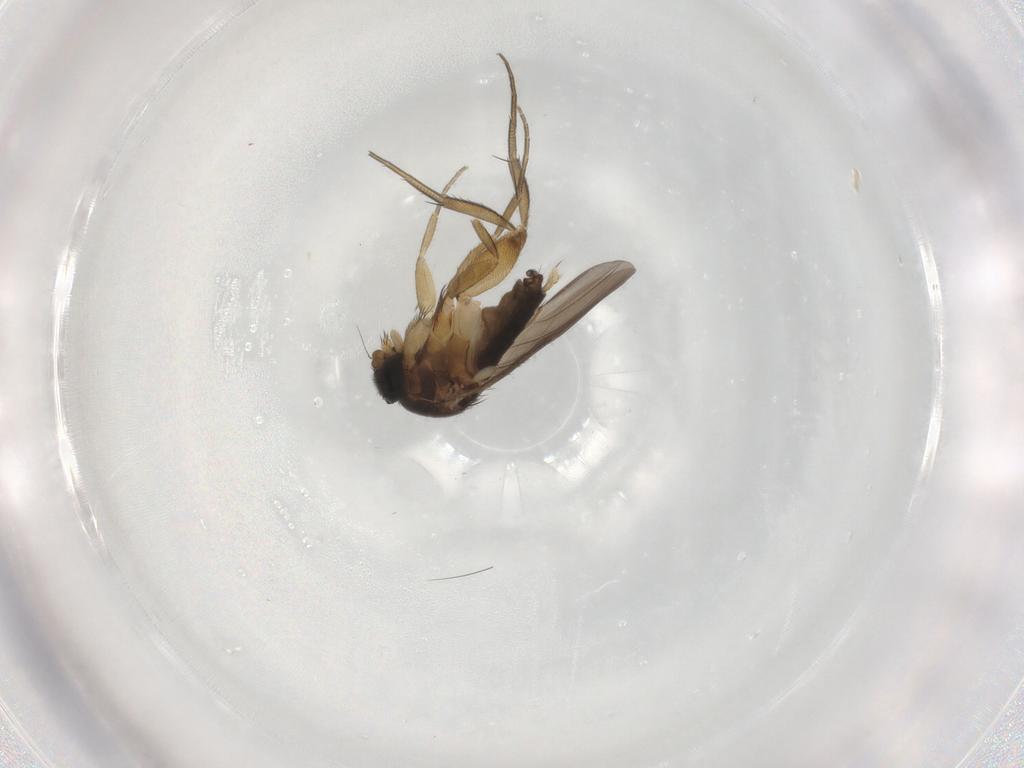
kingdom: Animalia
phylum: Arthropoda
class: Insecta
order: Diptera
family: Phoridae
